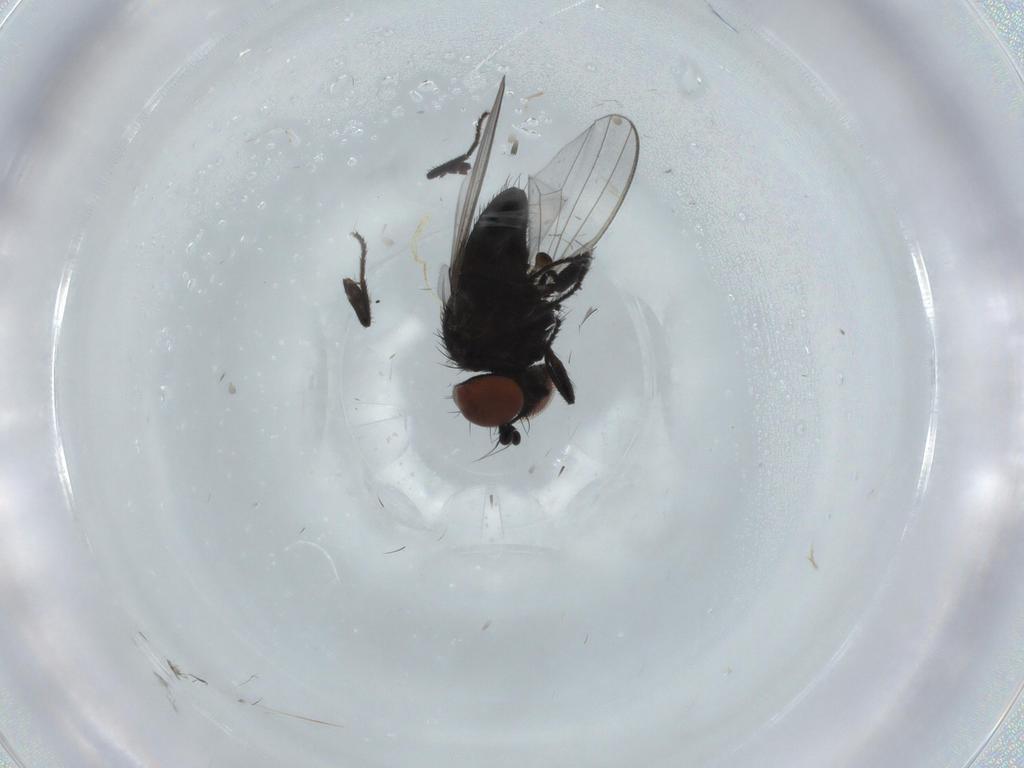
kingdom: Animalia
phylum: Arthropoda
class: Insecta
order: Diptera
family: Sciaridae
